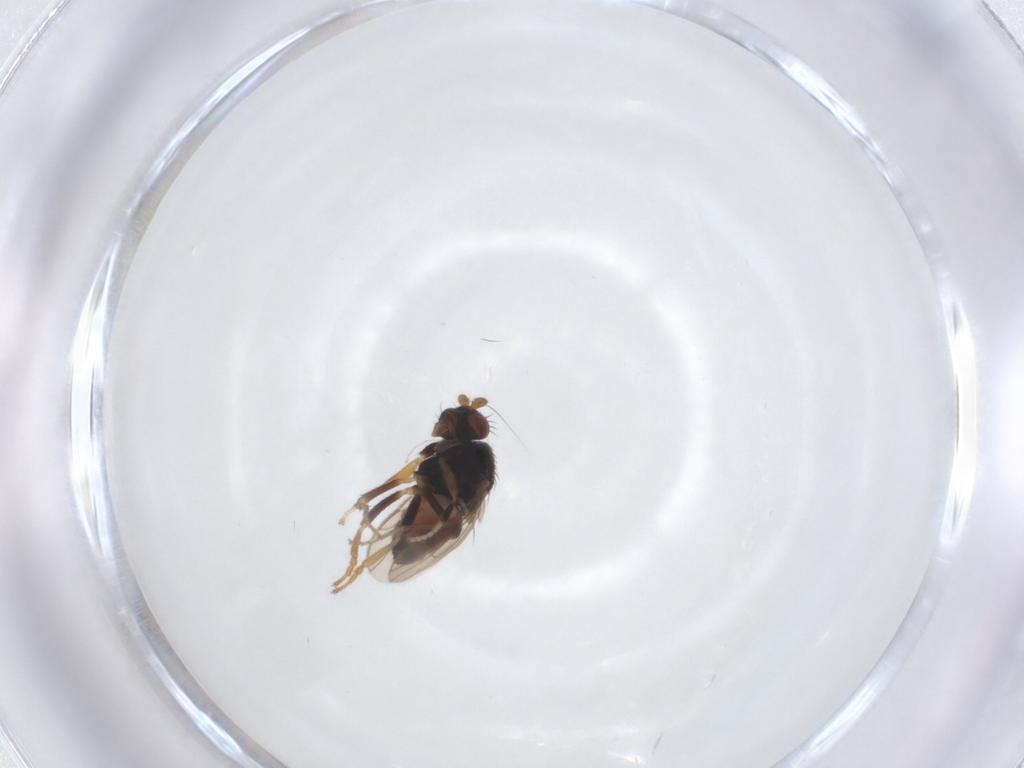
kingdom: Animalia
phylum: Arthropoda
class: Insecta
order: Diptera
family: Sphaeroceridae
